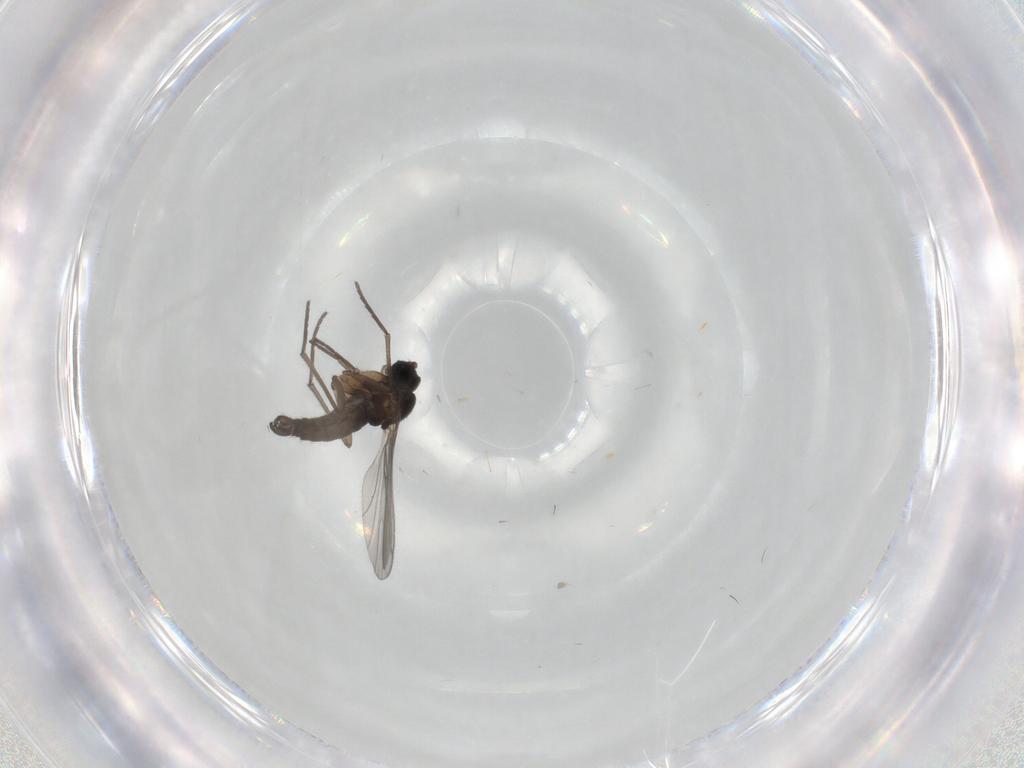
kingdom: Animalia
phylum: Arthropoda
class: Insecta
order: Diptera
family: Sciaridae
